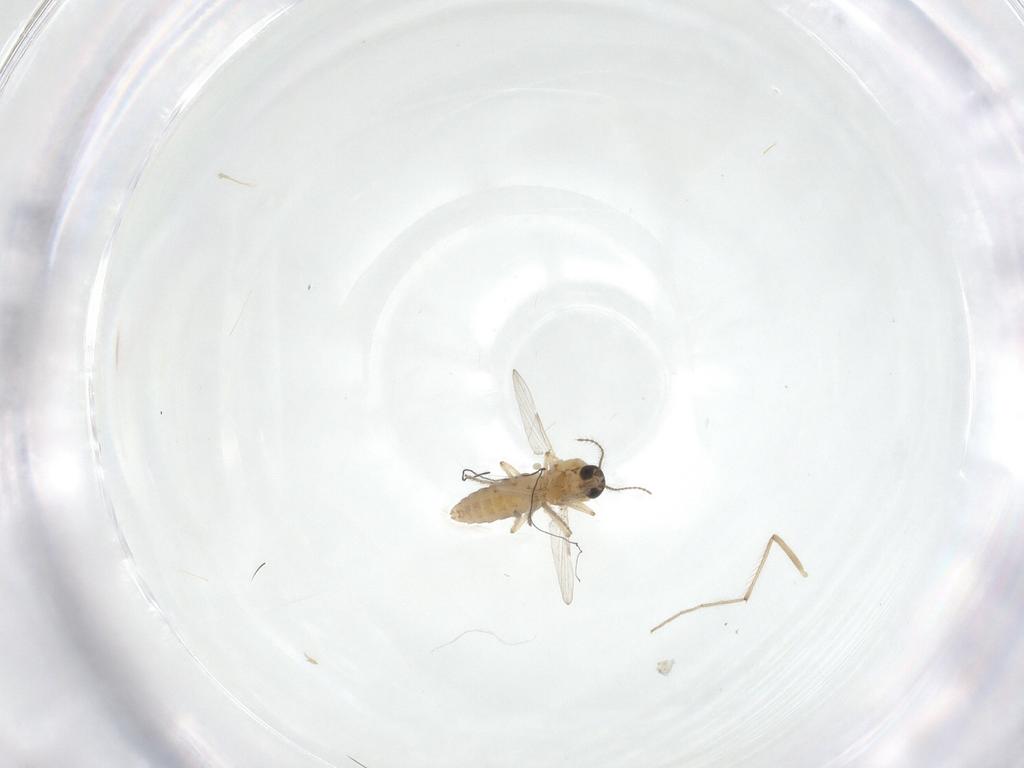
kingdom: Animalia
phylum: Arthropoda
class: Insecta
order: Diptera
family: Ceratopogonidae
